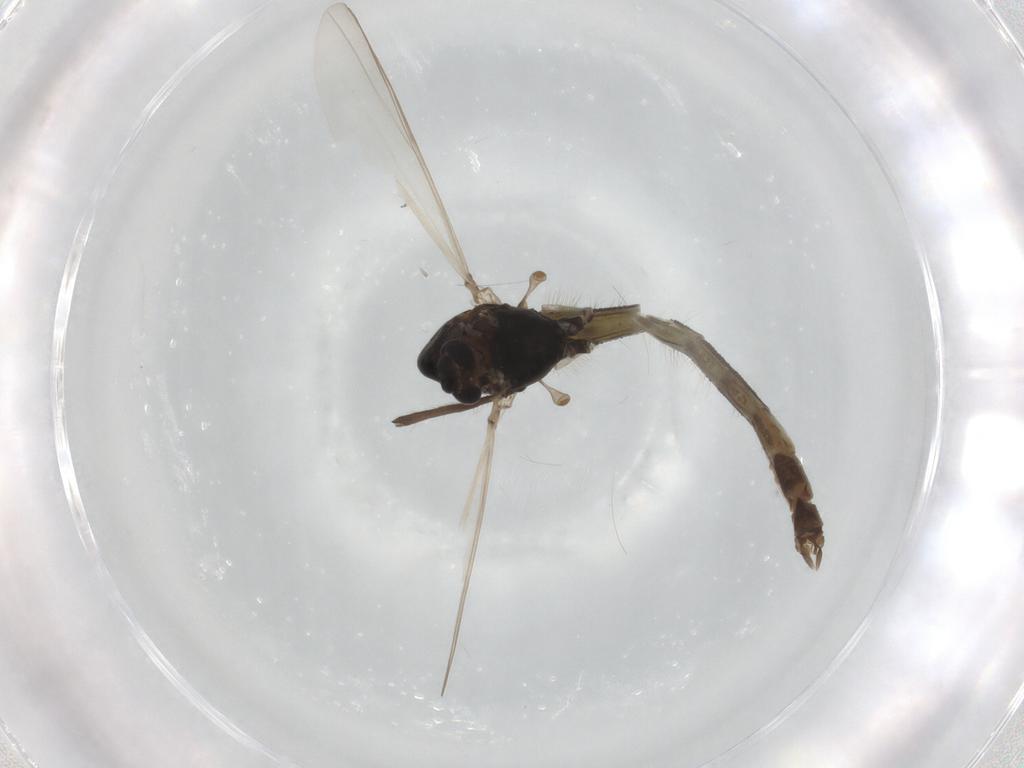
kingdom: Animalia
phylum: Arthropoda
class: Insecta
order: Diptera
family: Chironomidae
